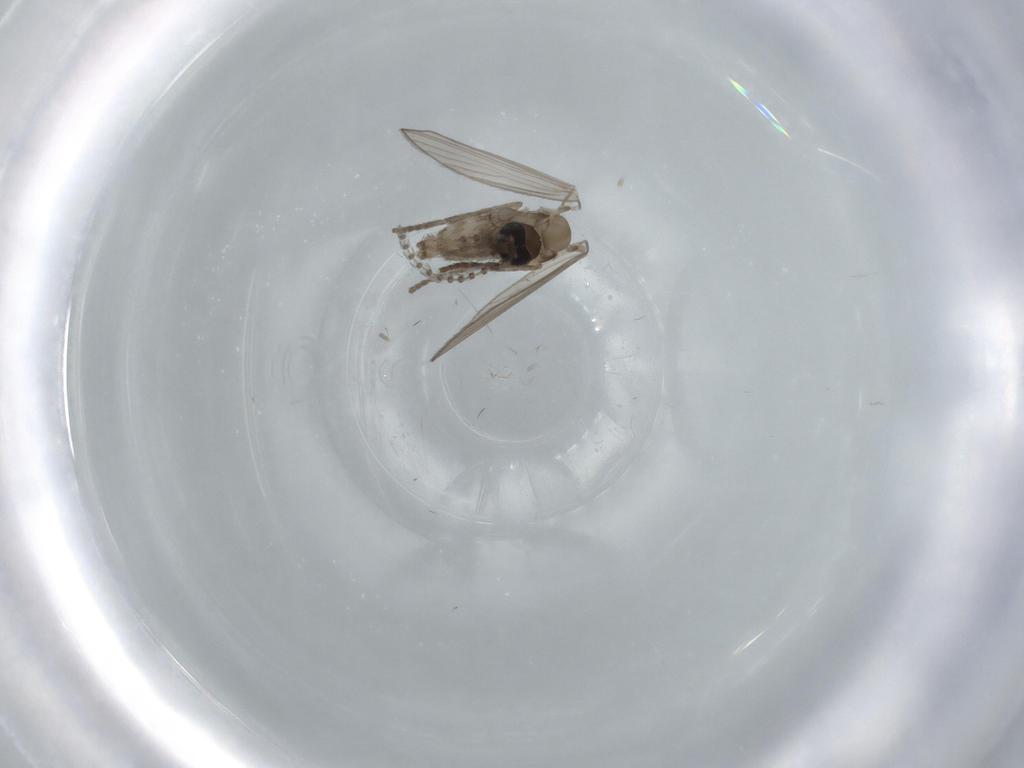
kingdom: Animalia
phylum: Arthropoda
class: Insecta
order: Diptera
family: Psychodidae
